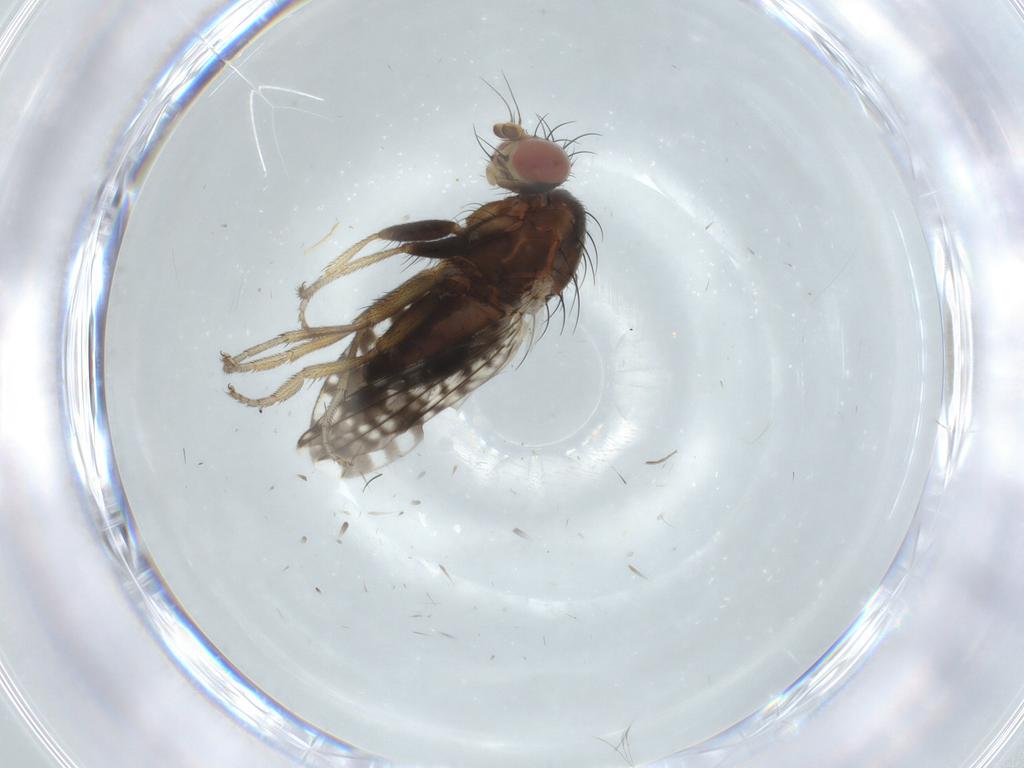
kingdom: Animalia
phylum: Arthropoda
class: Insecta
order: Diptera
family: Tephritidae
